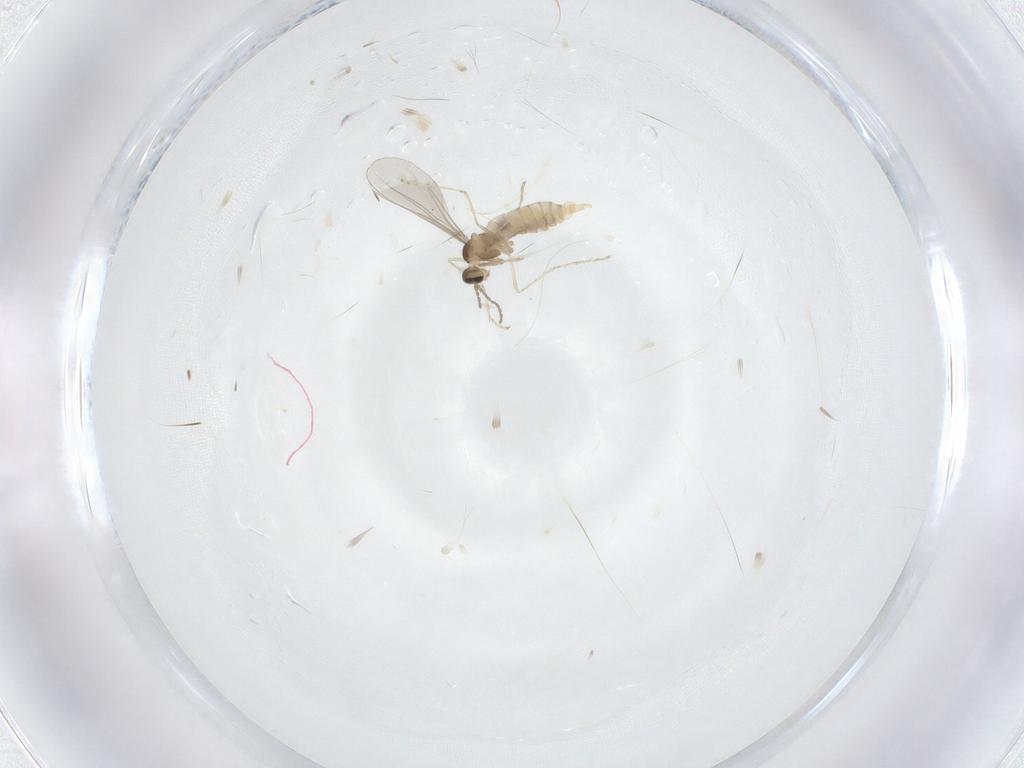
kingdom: Animalia
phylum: Arthropoda
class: Insecta
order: Diptera
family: Cecidomyiidae
